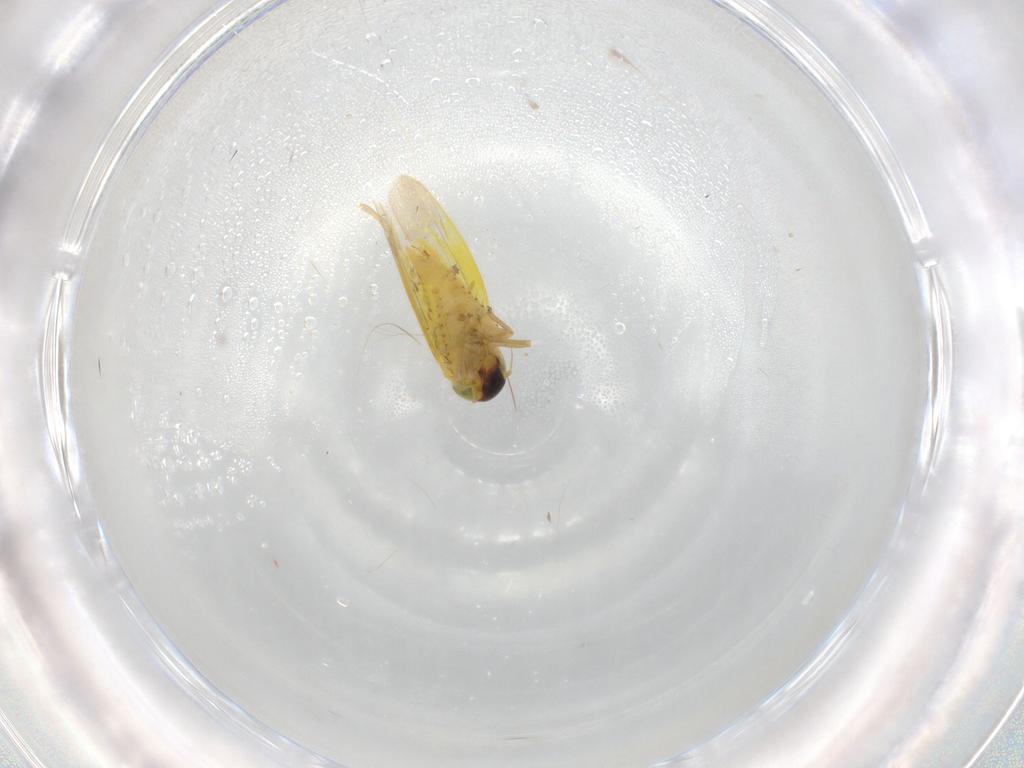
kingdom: Animalia
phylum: Arthropoda
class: Insecta
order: Hemiptera
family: Cicadellidae
